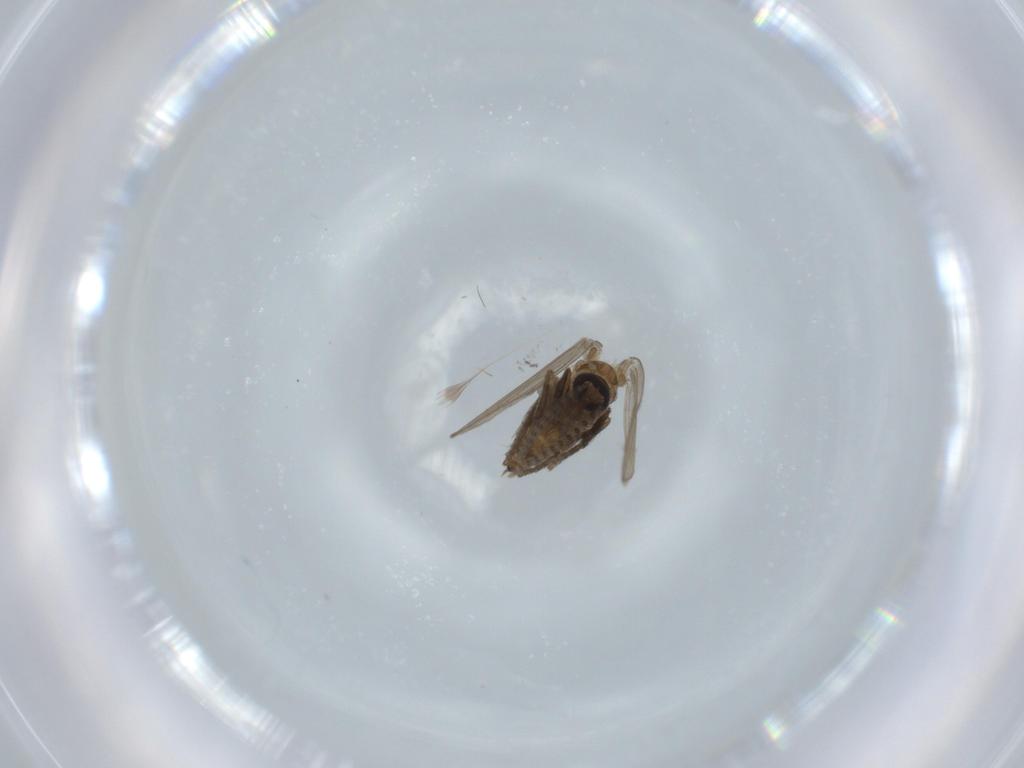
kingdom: Animalia
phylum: Arthropoda
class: Insecta
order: Diptera
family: Psychodidae
